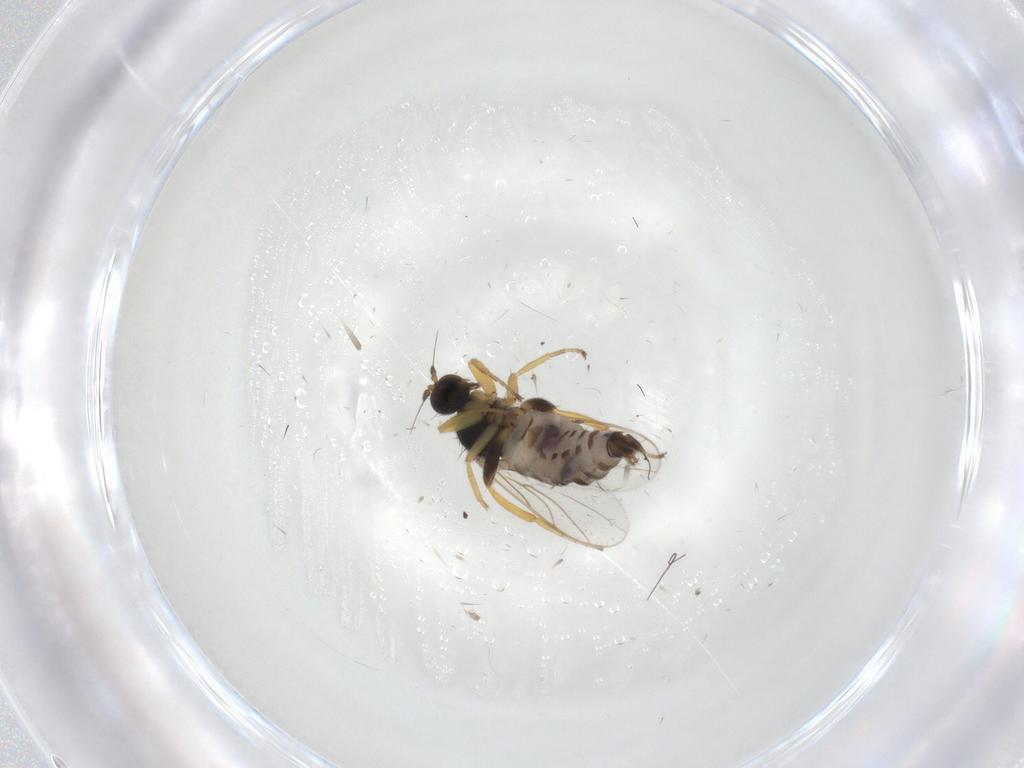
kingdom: Animalia
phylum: Arthropoda
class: Insecta
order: Diptera
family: Hybotidae
